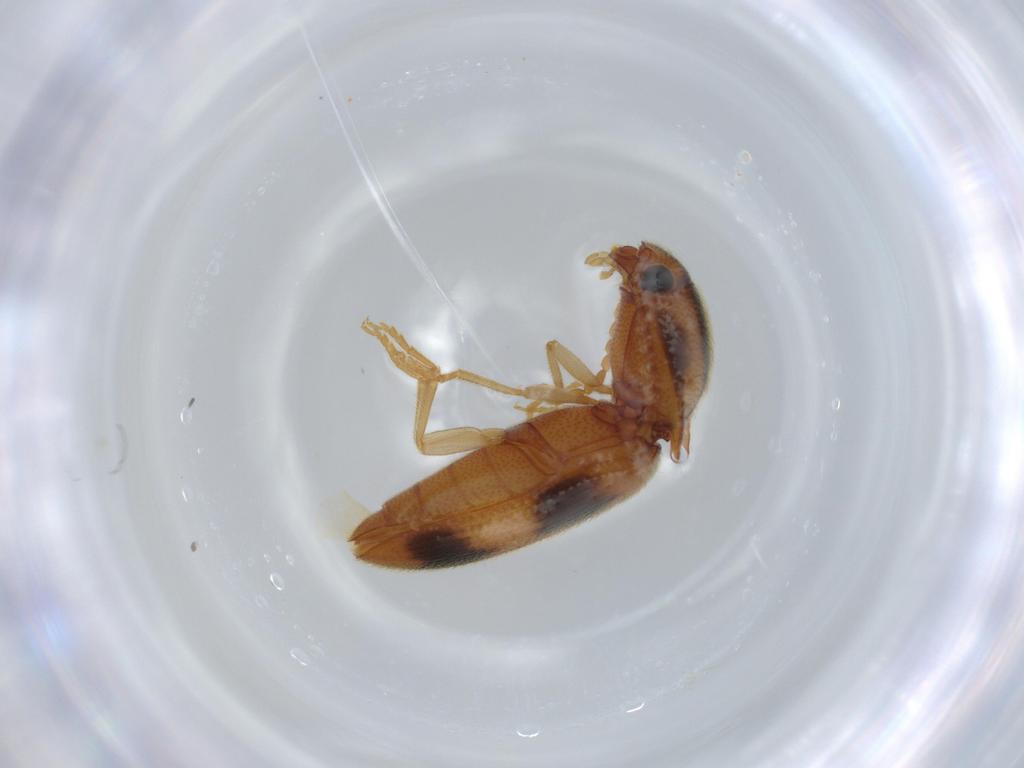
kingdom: Animalia
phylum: Arthropoda
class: Insecta
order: Coleoptera
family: Elateridae
